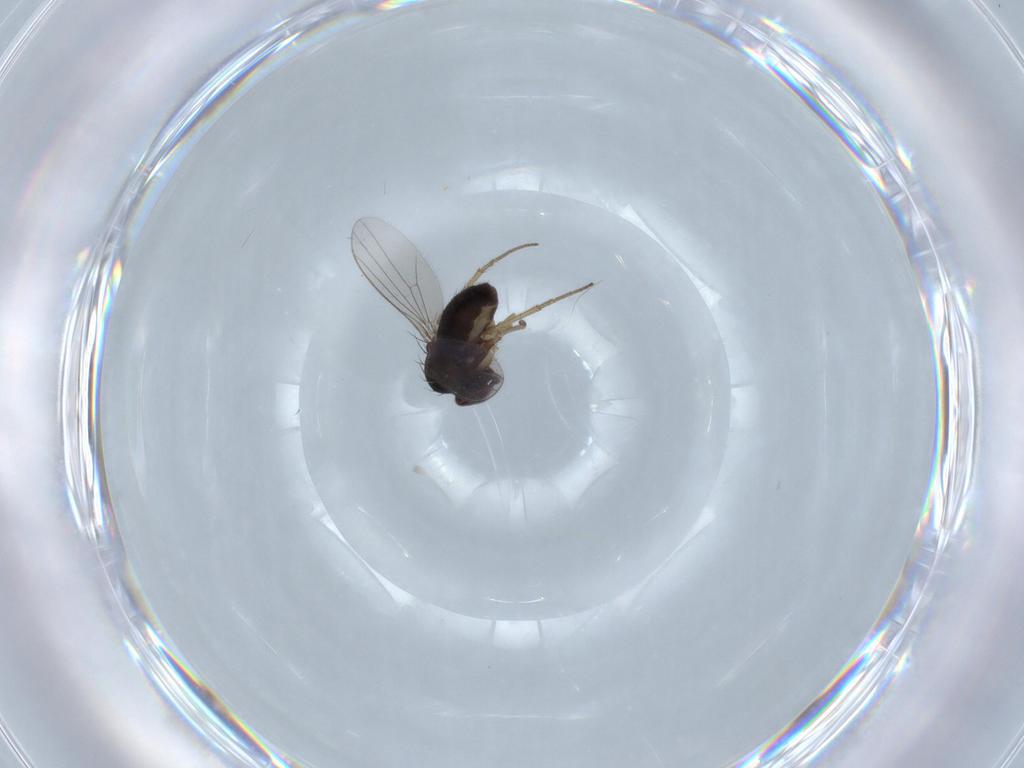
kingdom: Animalia
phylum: Arthropoda
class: Insecta
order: Diptera
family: Dolichopodidae
